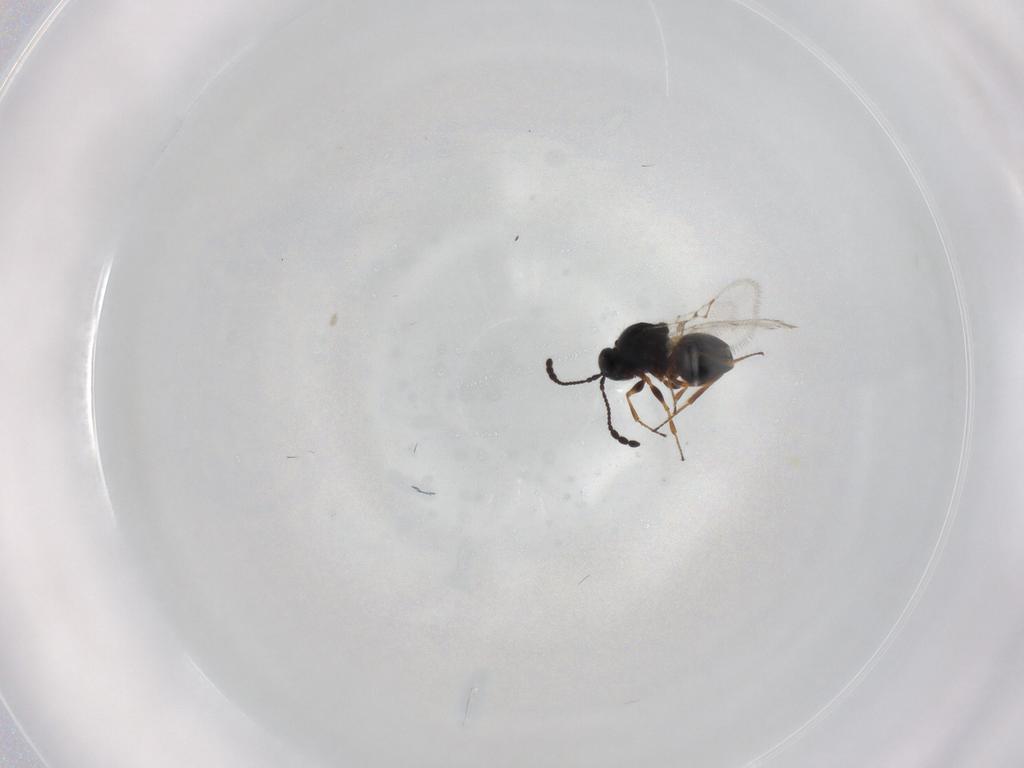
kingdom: Animalia
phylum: Arthropoda
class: Insecta
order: Hymenoptera
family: Figitidae
